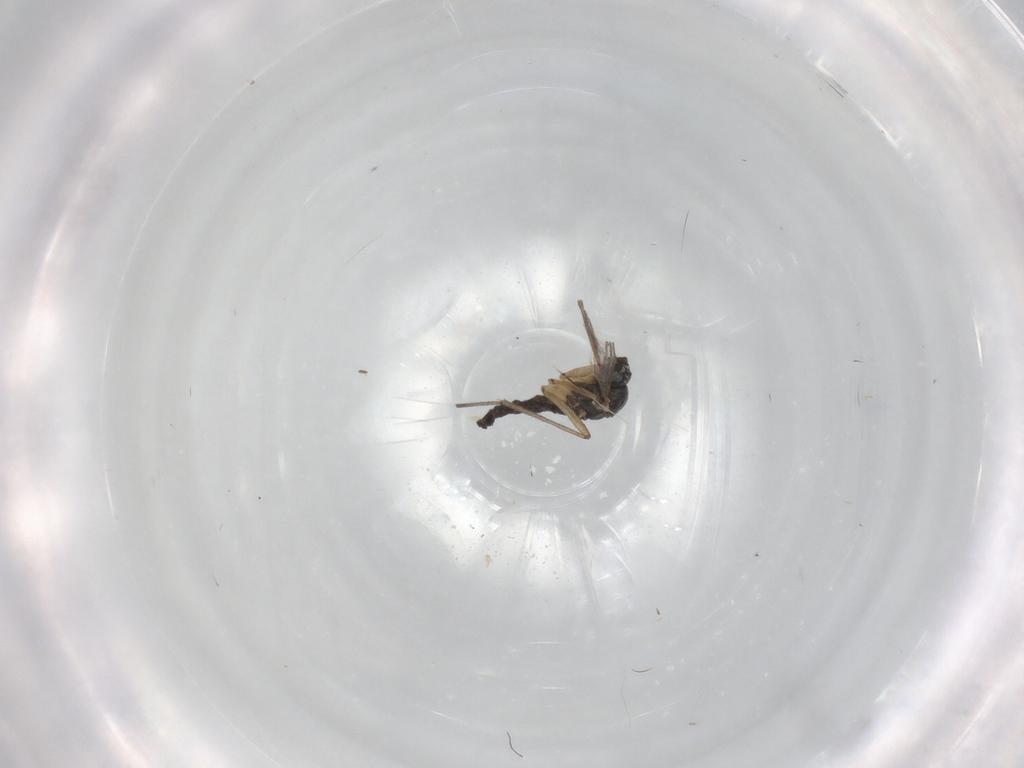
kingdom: Animalia
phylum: Arthropoda
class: Insecta
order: Diptera
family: Sciaridae
